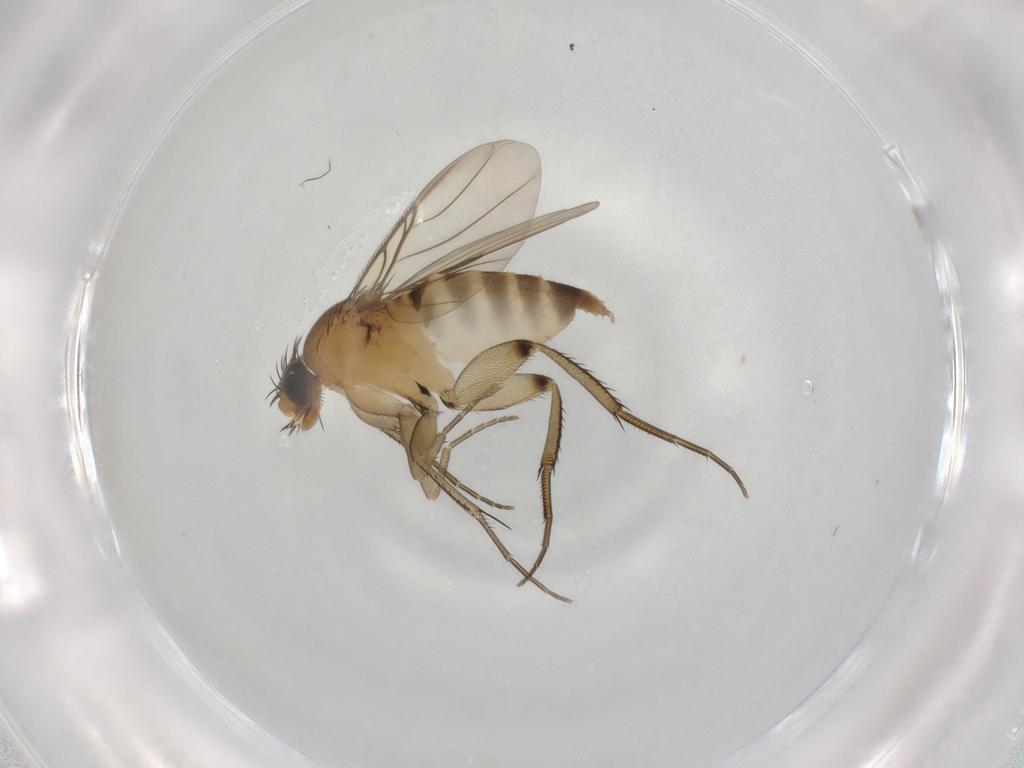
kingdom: Animalia
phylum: Arthropoda
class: Insecta
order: Diptera
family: Phoridae
